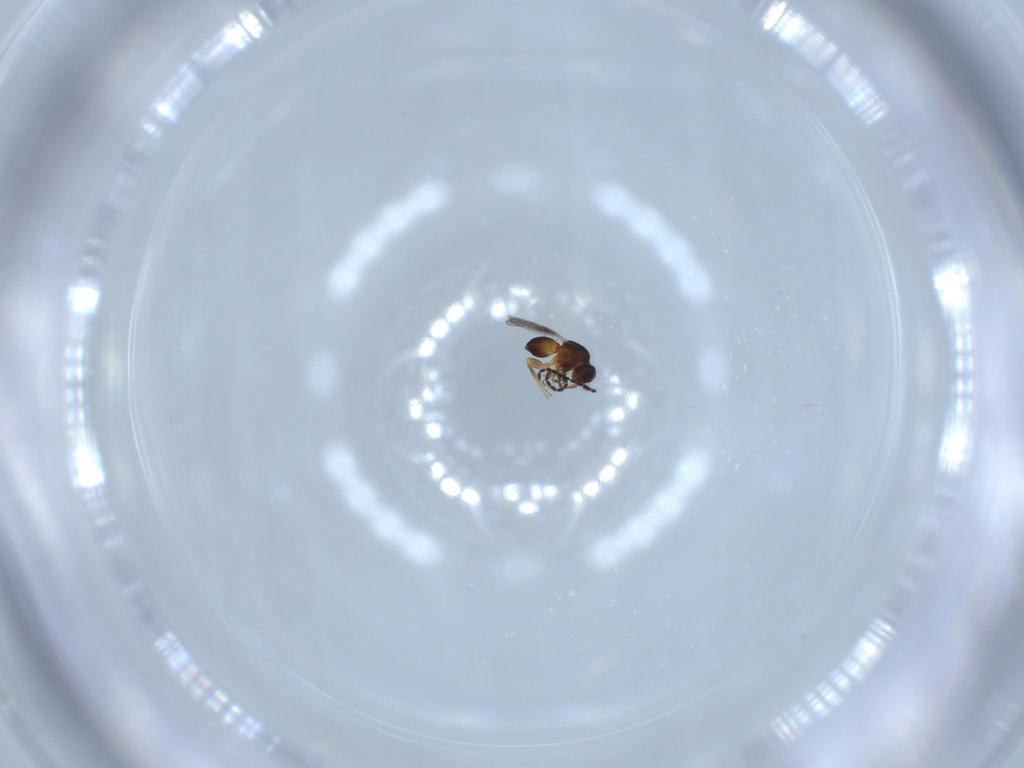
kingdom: Animalia
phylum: Arthropoda
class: Insecta
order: Hymenoptera
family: Ceraphronidae
